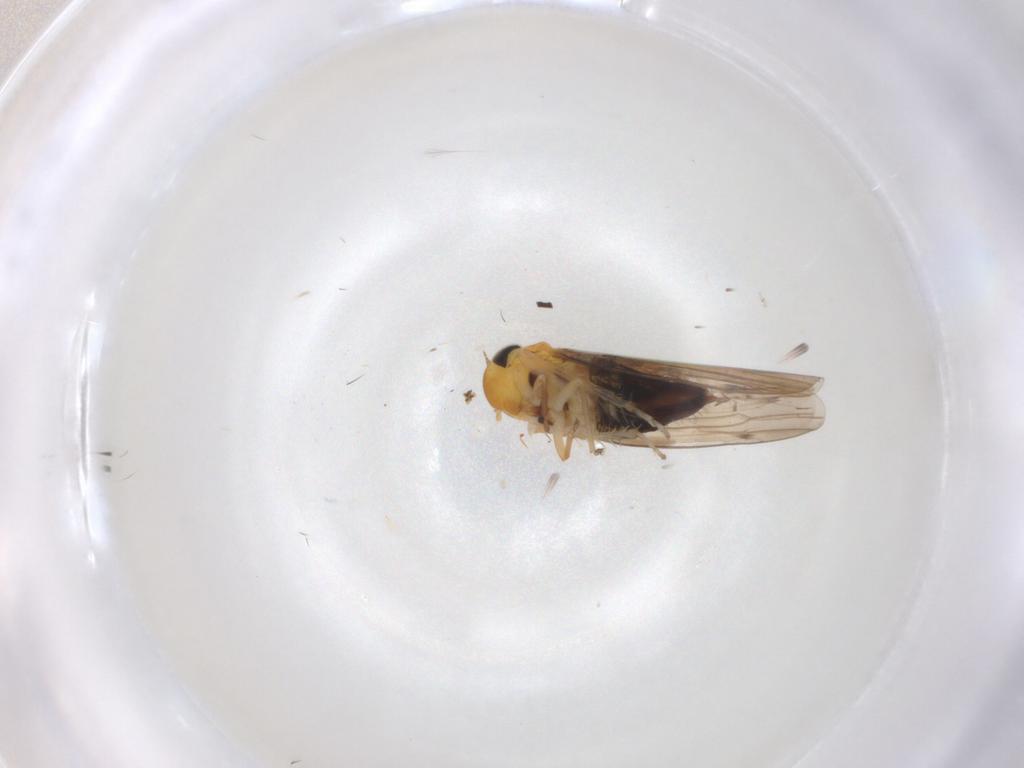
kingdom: Animalia
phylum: Arthropoda
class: Insecta
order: Hemiptera
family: Cicadellidae
